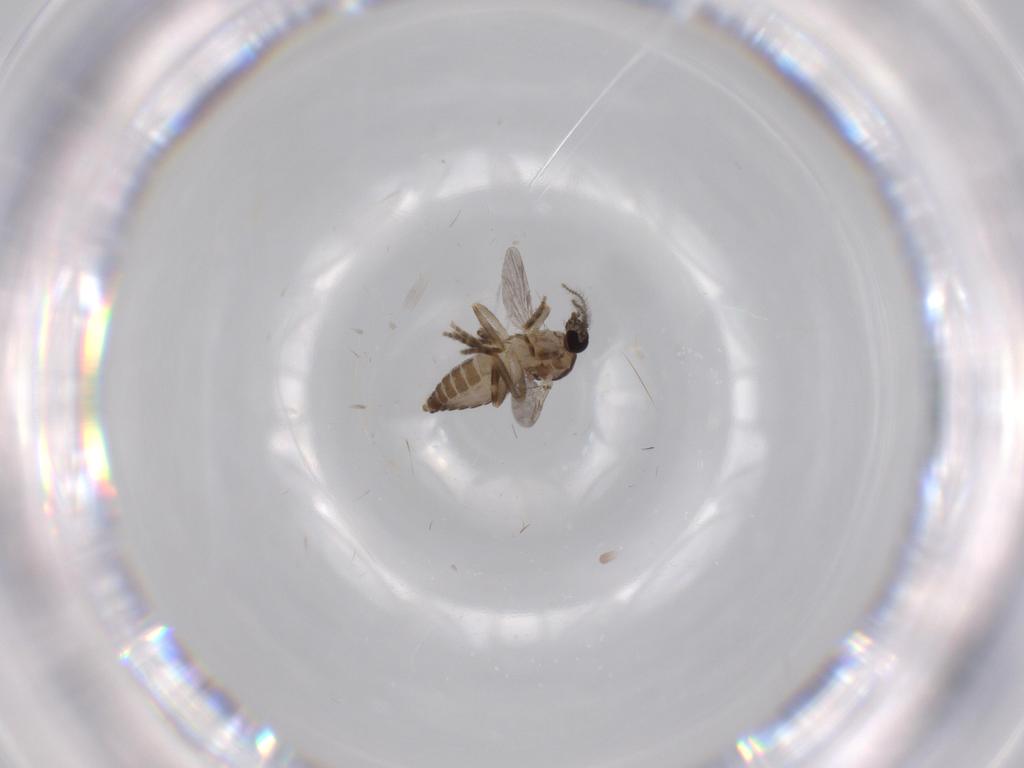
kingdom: Animalia
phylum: Arthropoda
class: Insecta
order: Diptera
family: Ceratopogonidae
